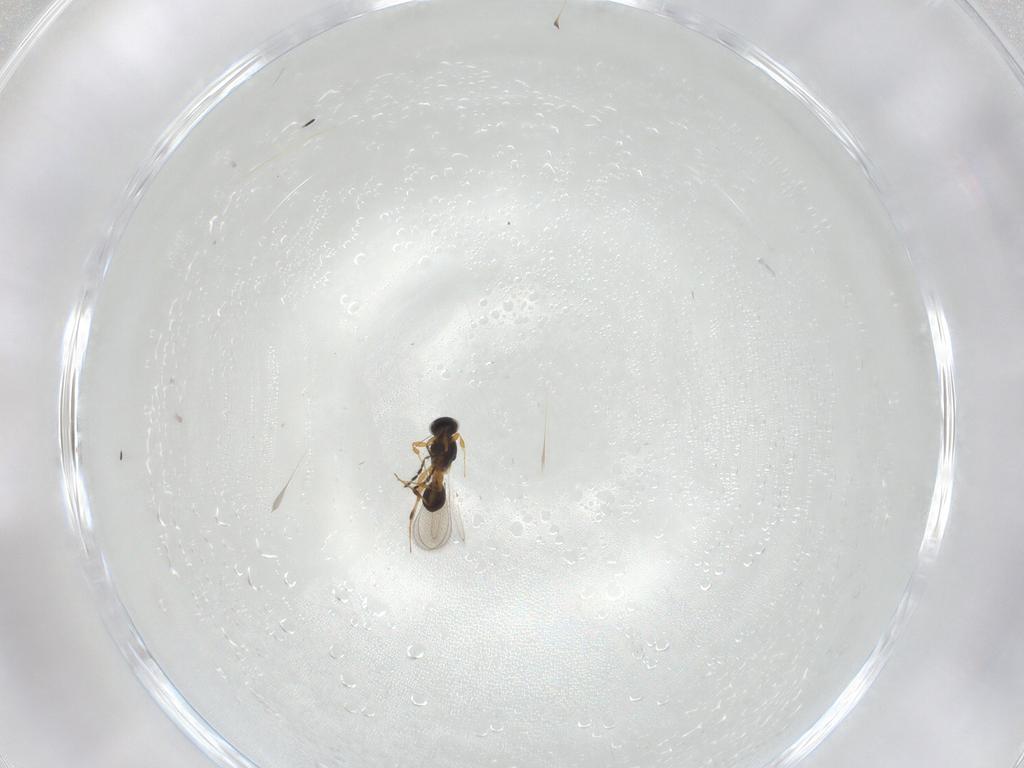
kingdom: Animalia
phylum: Arthropoda
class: Insecta
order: Hymenoptera
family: Platygastridae
